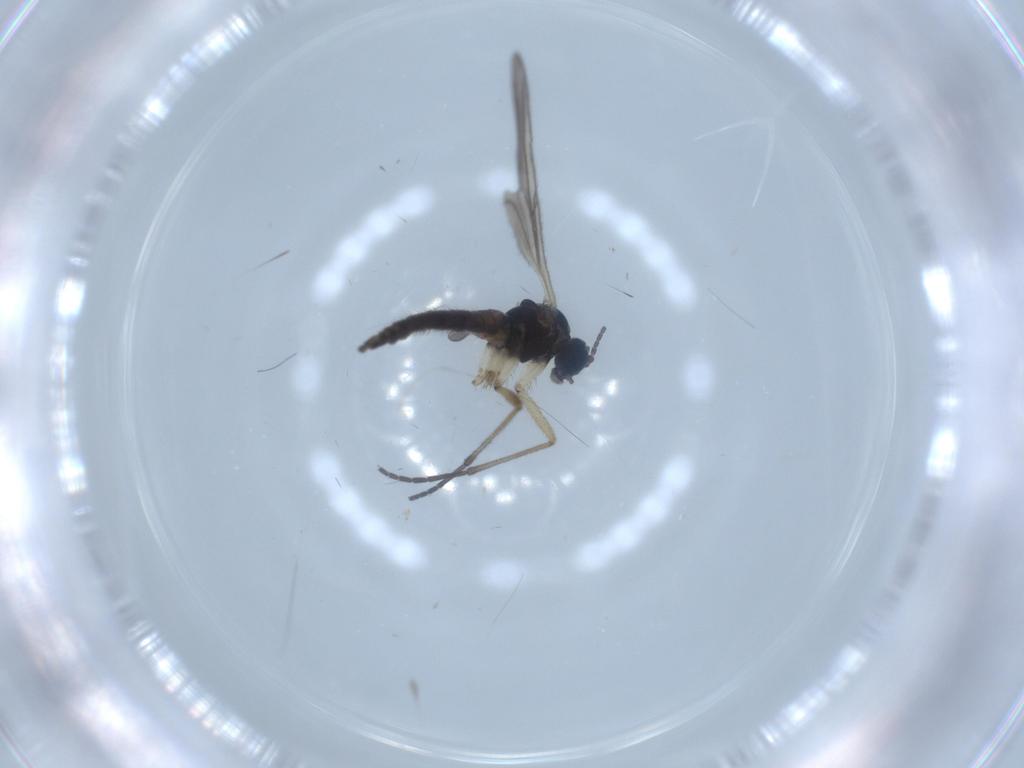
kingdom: Animalia
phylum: Arthropoda
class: Insecta
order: Diptera
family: Sciaridae
